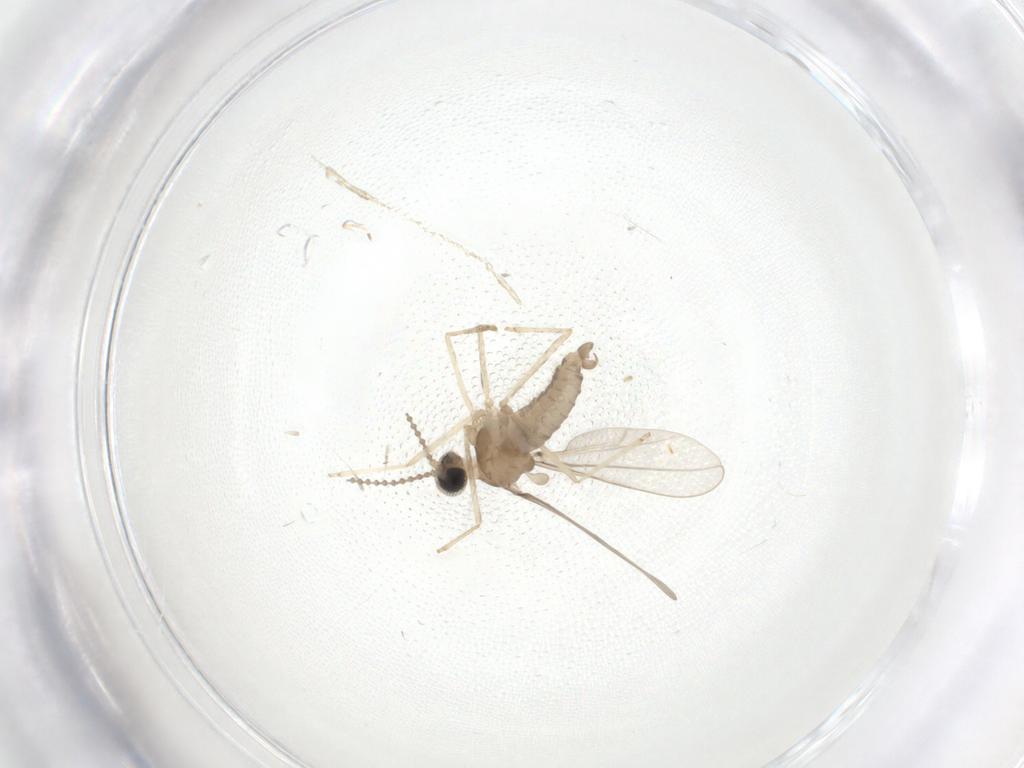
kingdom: Animalia
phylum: Arthropoda
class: Insecta
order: Diptera
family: Cecidomyiidae
